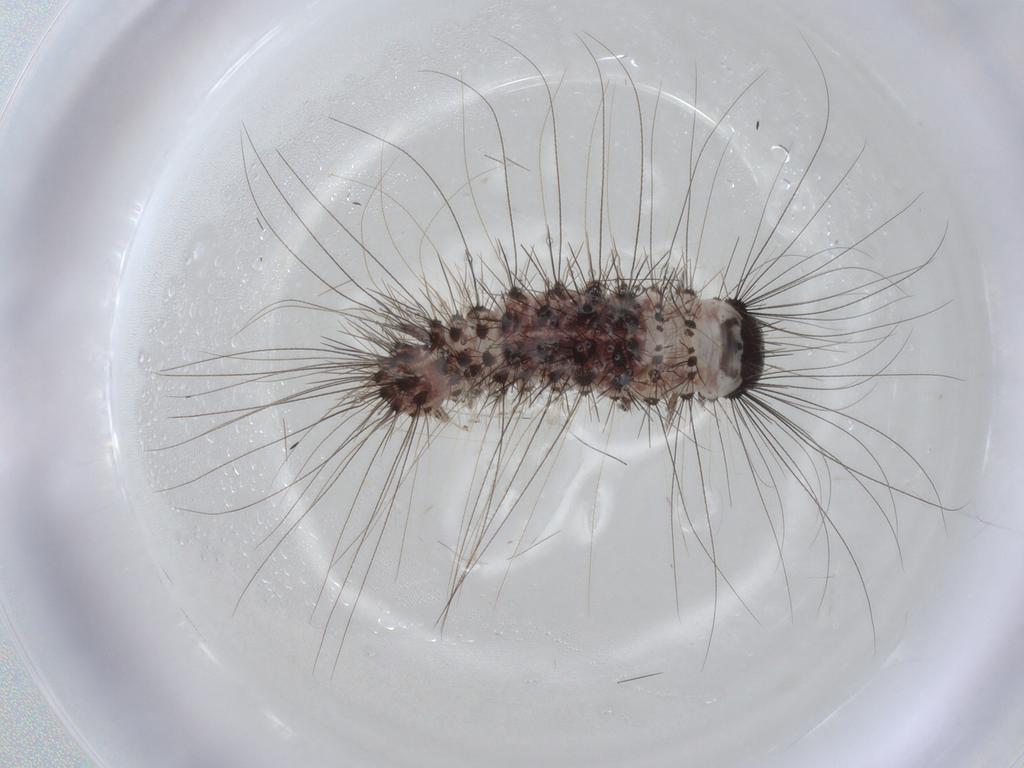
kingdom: Animalia
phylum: Arthropoda
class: Insecta
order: Lepidoptera
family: Erebidae
